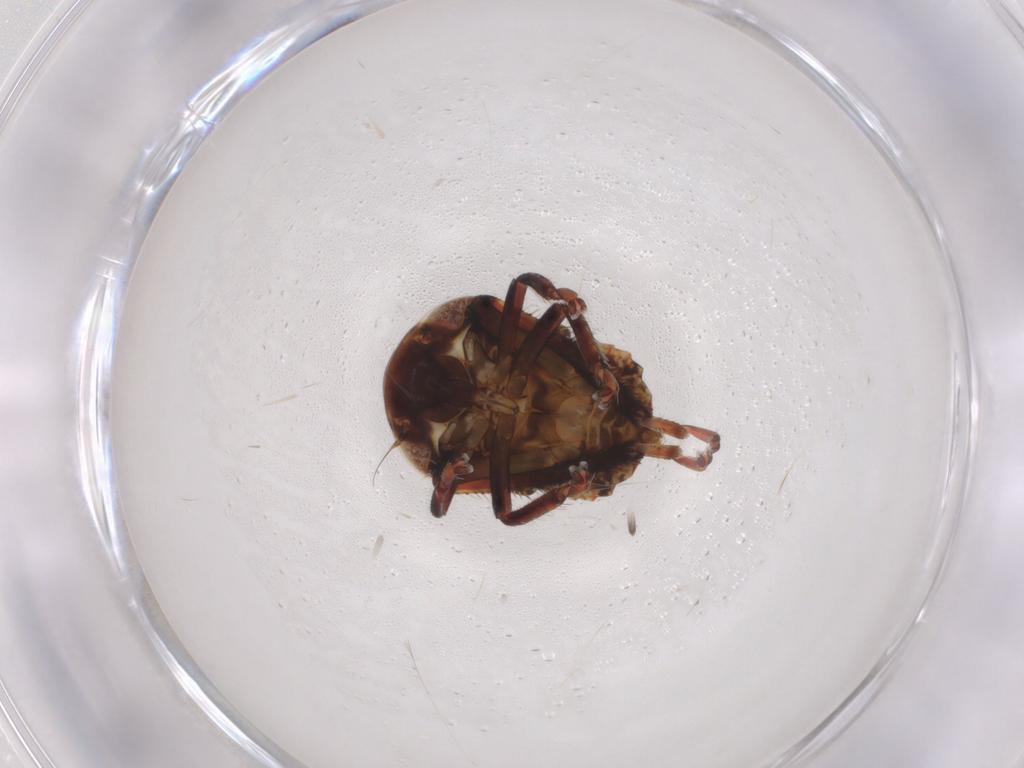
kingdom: Animalia
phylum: Arthropoda
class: Insecta
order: Hemiptera
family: Cicadellidae
